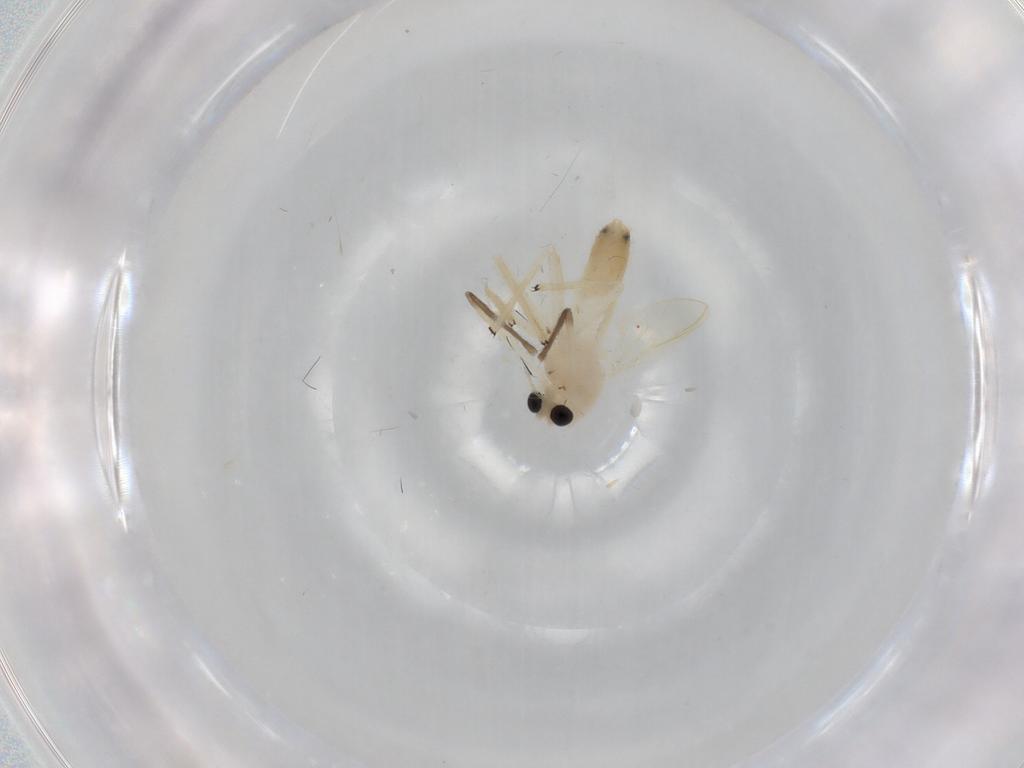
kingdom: Animalia
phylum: Arthropoda
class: Insecta
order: Diptera
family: Chironomidae
